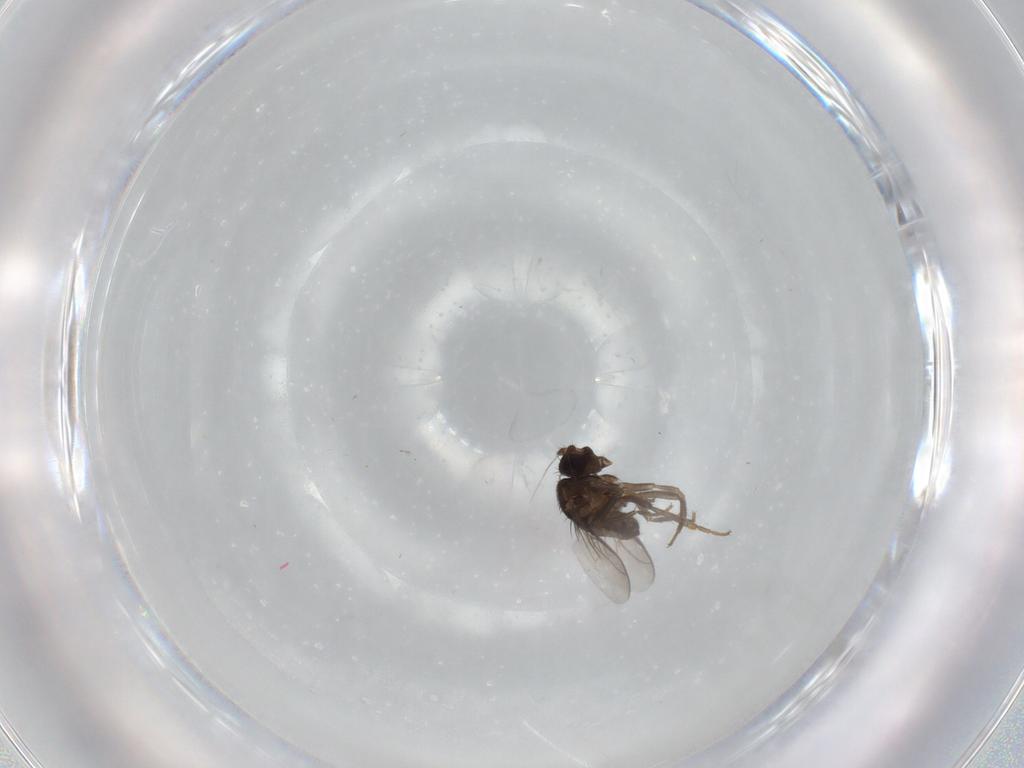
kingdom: Animalia
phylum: Arthropoda
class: Insecta
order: Diptera
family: Sphaeroceridae
